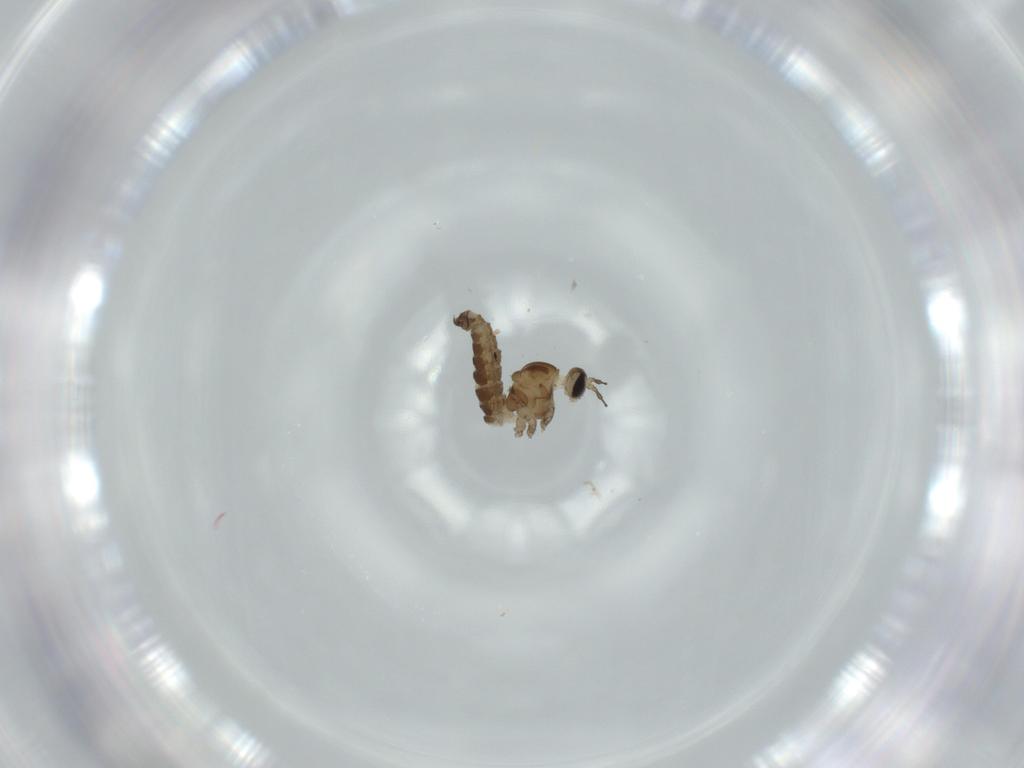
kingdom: Animalia
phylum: Arthropoda
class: Insecta
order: Diptera
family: Cecidomyiidae
